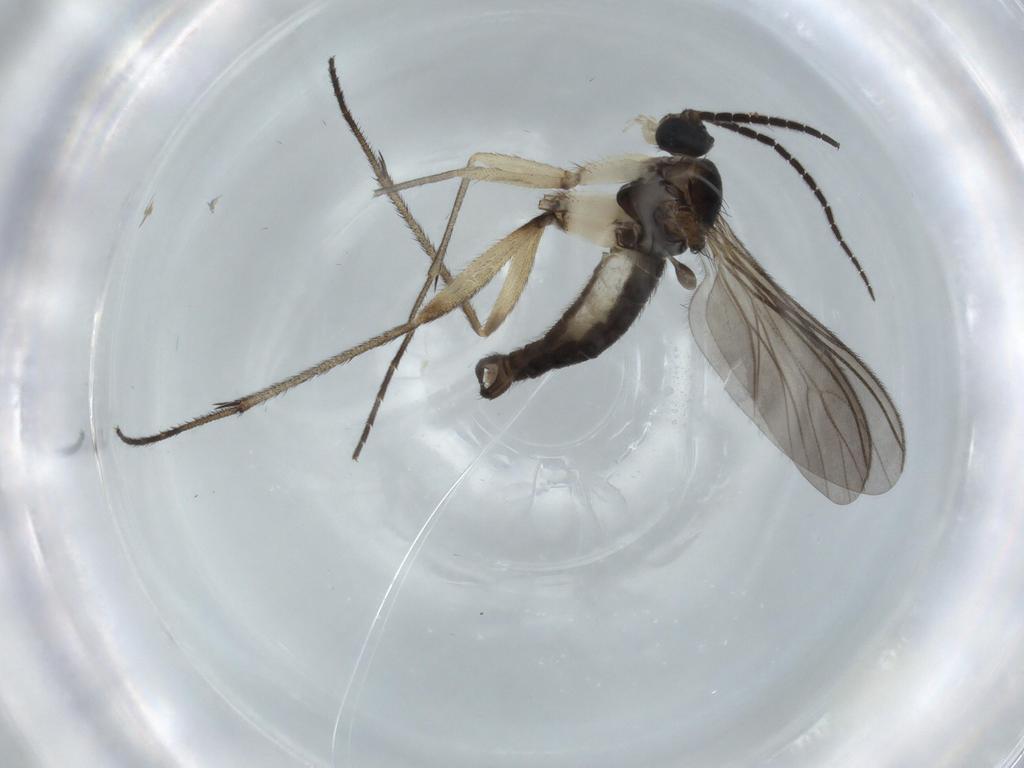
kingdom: Animalia
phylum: Arthropoda
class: Insecta
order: Diptera
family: Sciaridae
